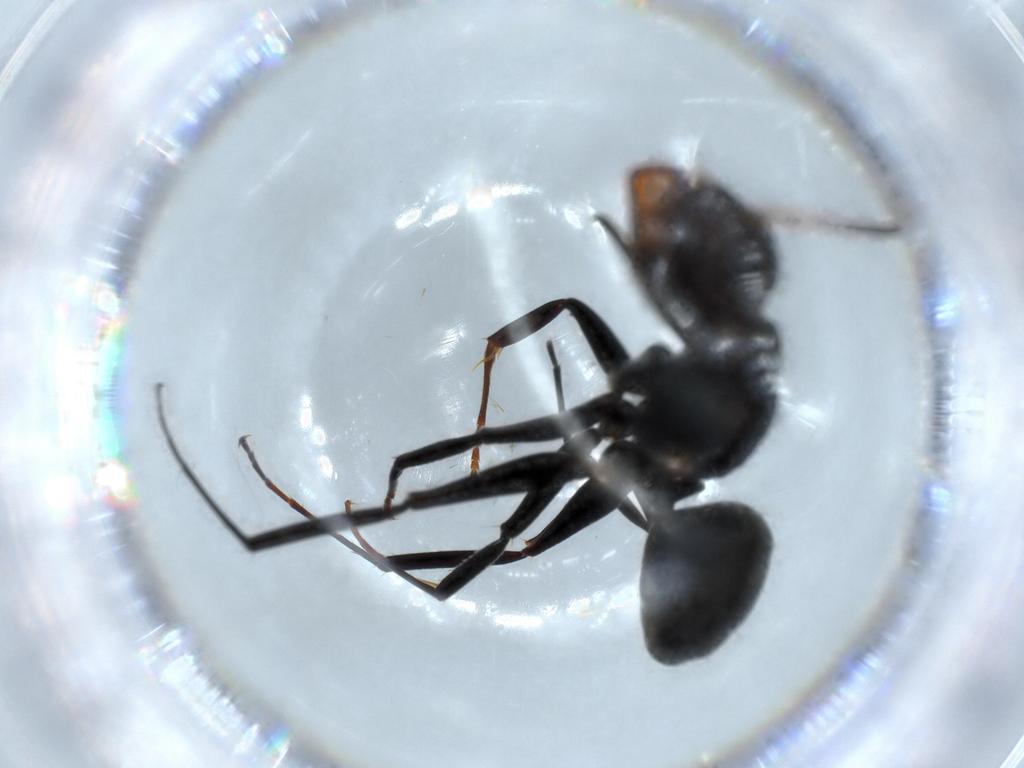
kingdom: Animalia
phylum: Arthropoda
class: Insecta
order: Hymenoptera
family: Formicidae
